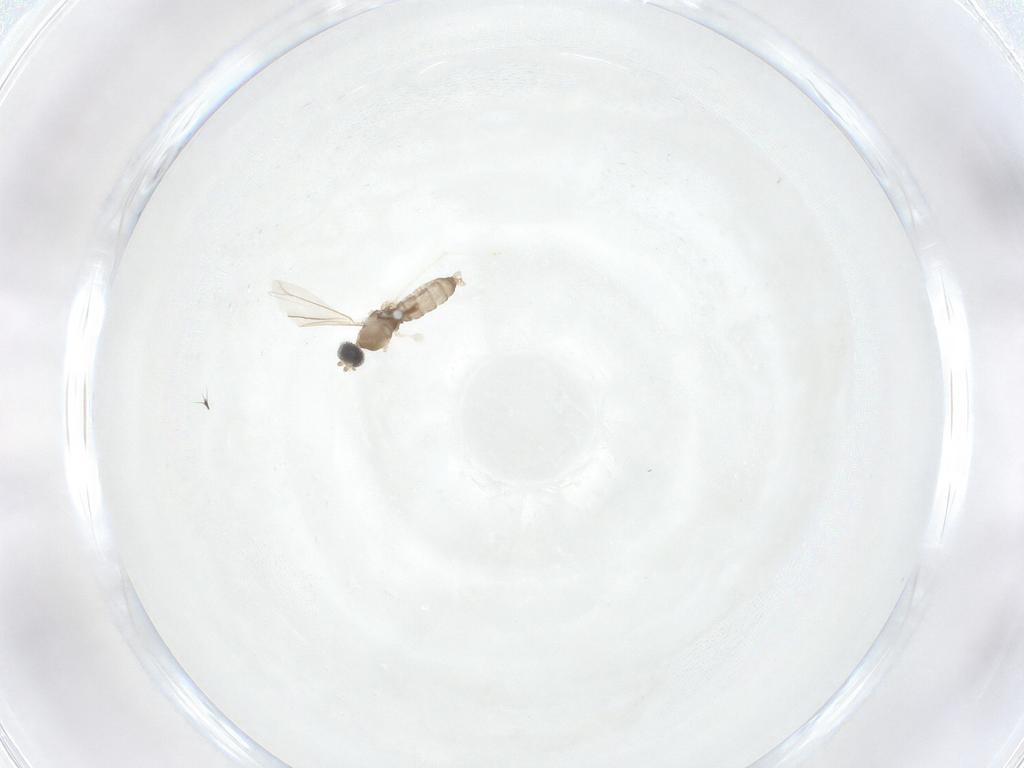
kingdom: Animalia
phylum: Arthropoda
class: Insecta
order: Diptera
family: Cecidomyiidae
